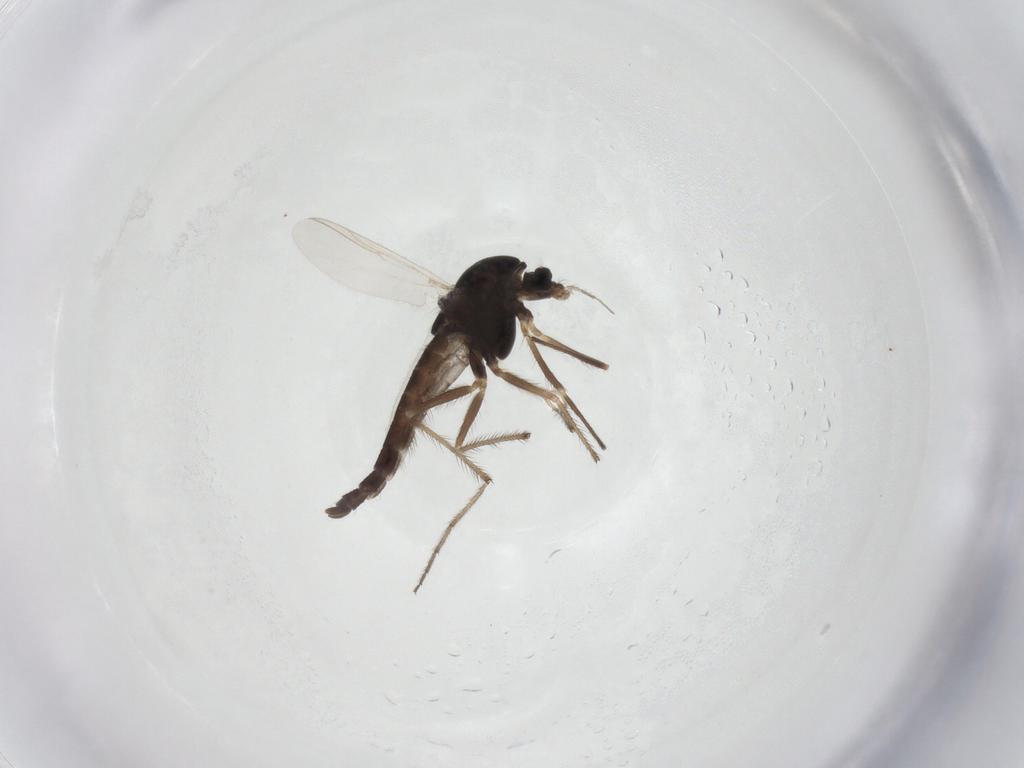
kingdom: Animalia
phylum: Arthropoda
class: Insecta
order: Diptera
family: Chironomidae
